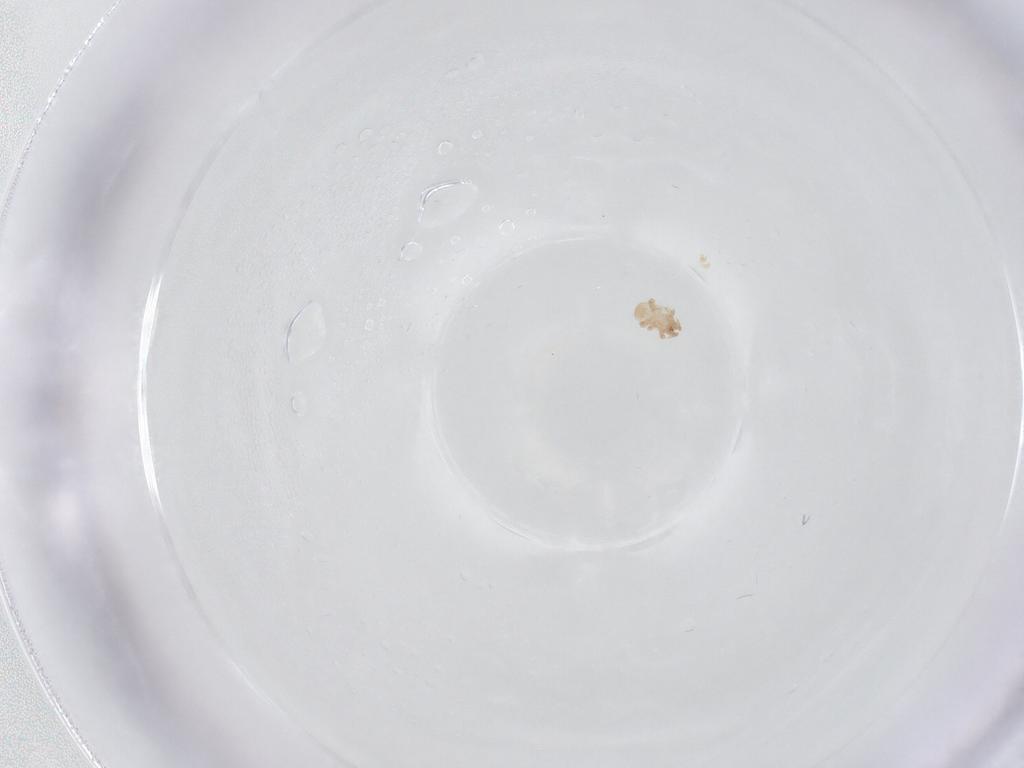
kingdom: Animalia
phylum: Arthropoda
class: Arachnida
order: Mesostigmata
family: Digamasellidae
